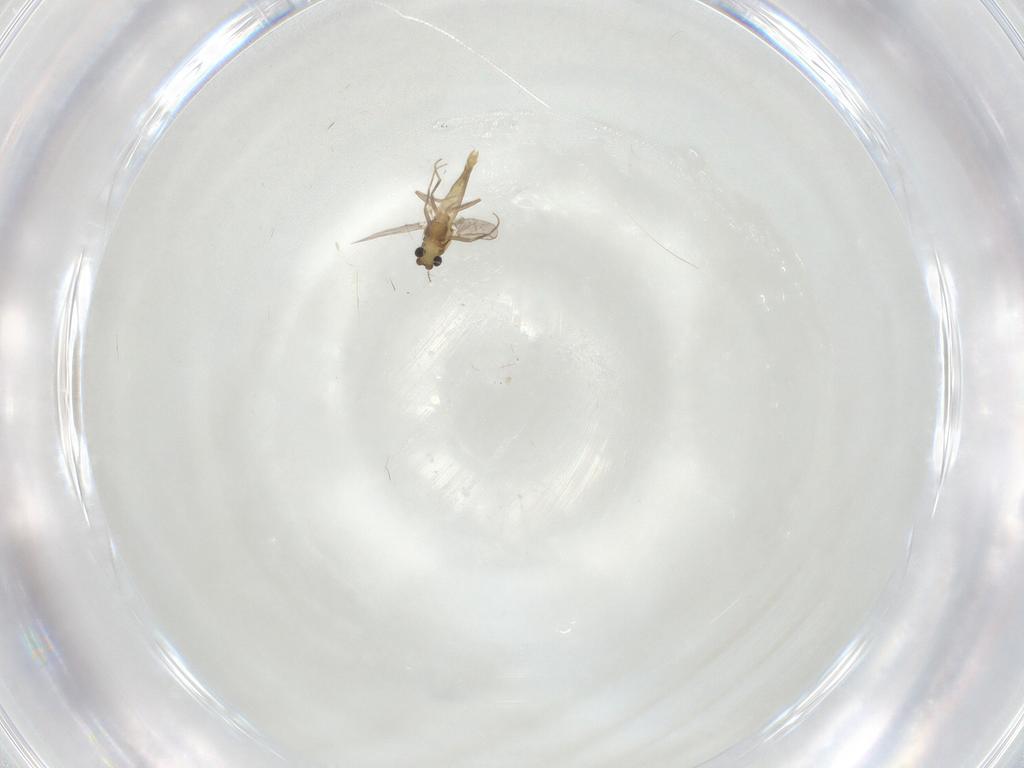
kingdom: Animalia
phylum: Arthropoda
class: Insecta
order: Diptera
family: Chironomidae
